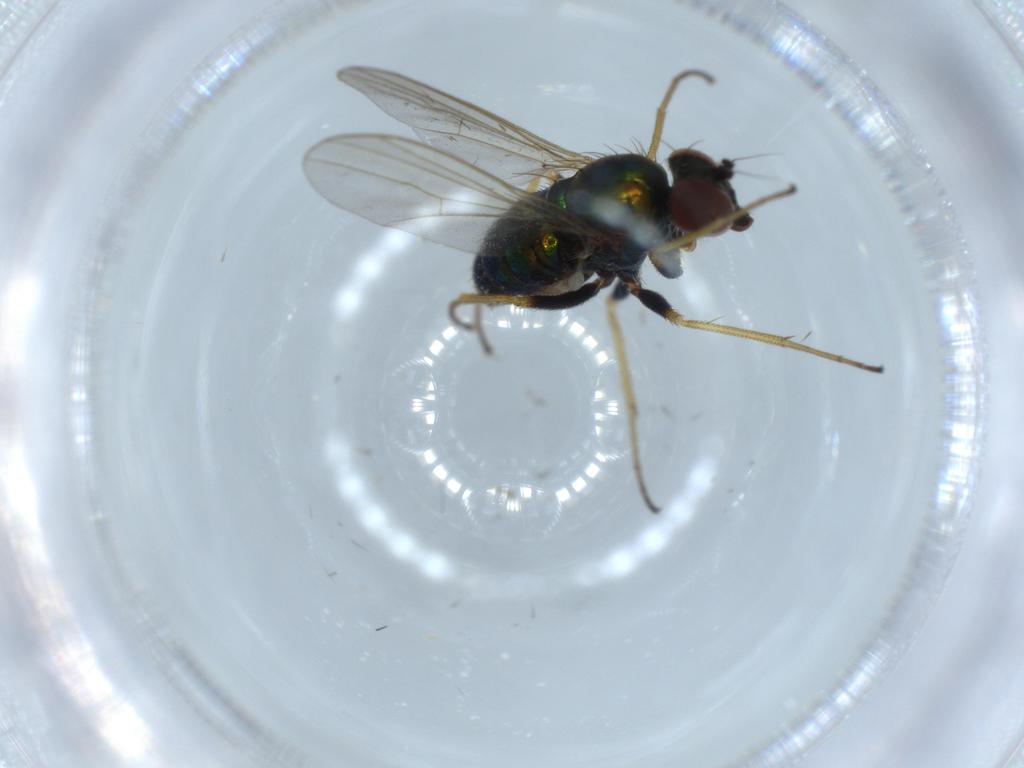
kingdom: Animalia
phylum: Arthropoda
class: Insecta
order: Diptera
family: Dolichopodidae
